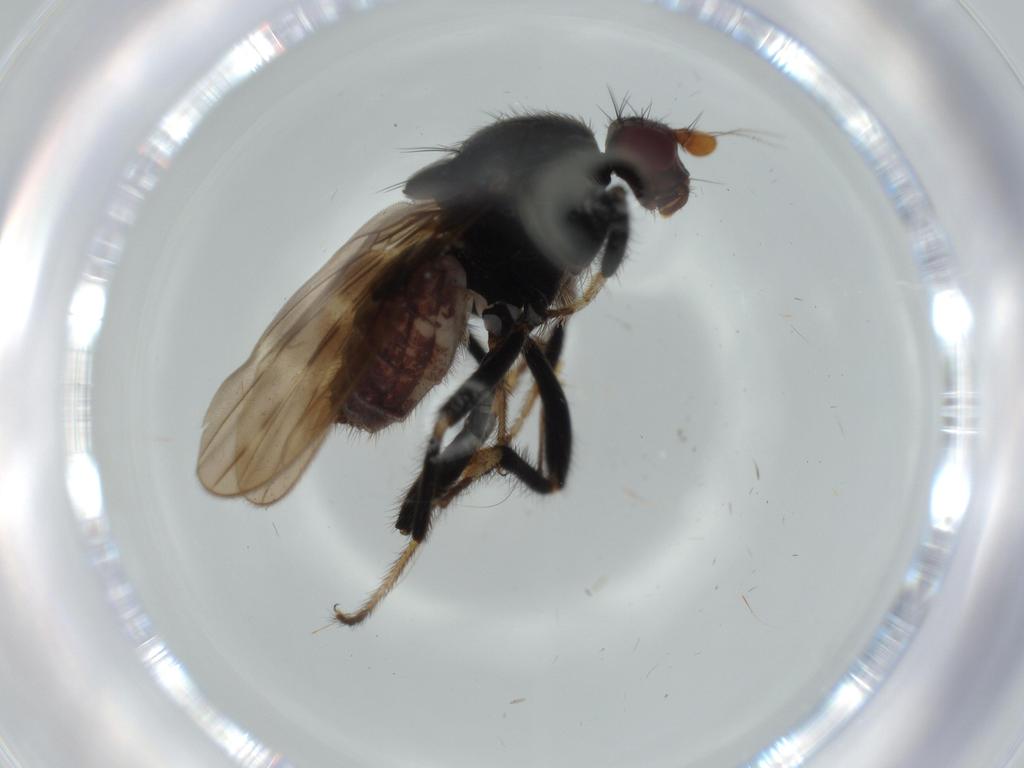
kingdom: Animalia
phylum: Arthropoda
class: Insecta
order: Diptera
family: Sphaeroceridae
